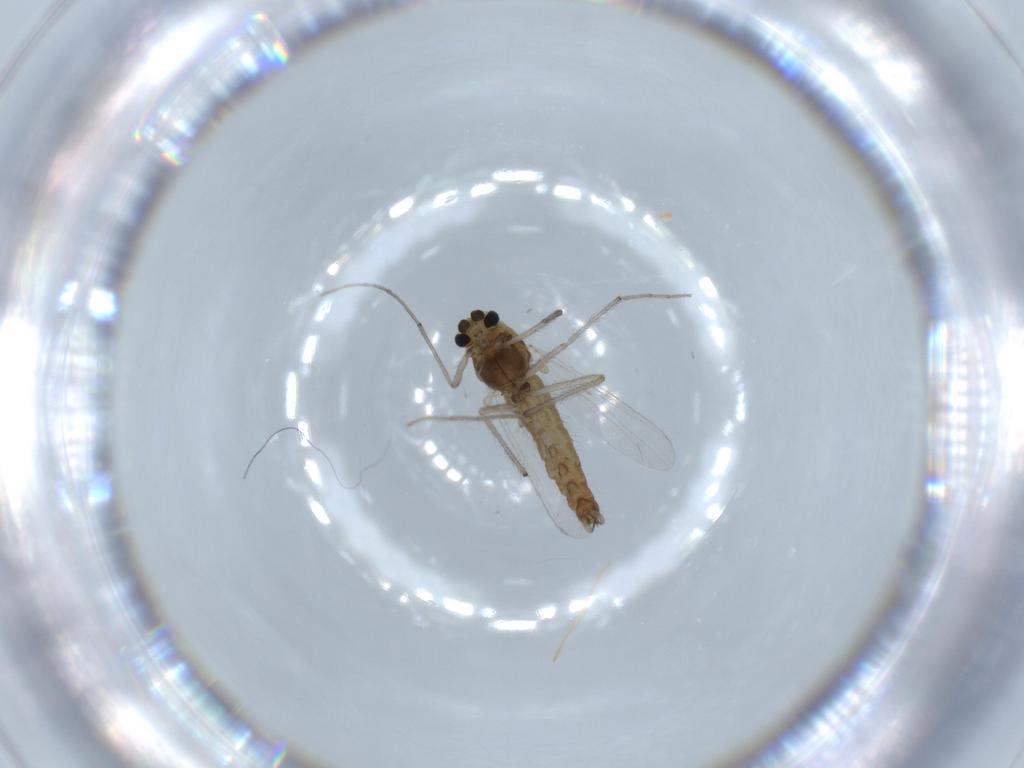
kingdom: Animalia
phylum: Arthropoda
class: Insecta
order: Diptera
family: Chironomidae
